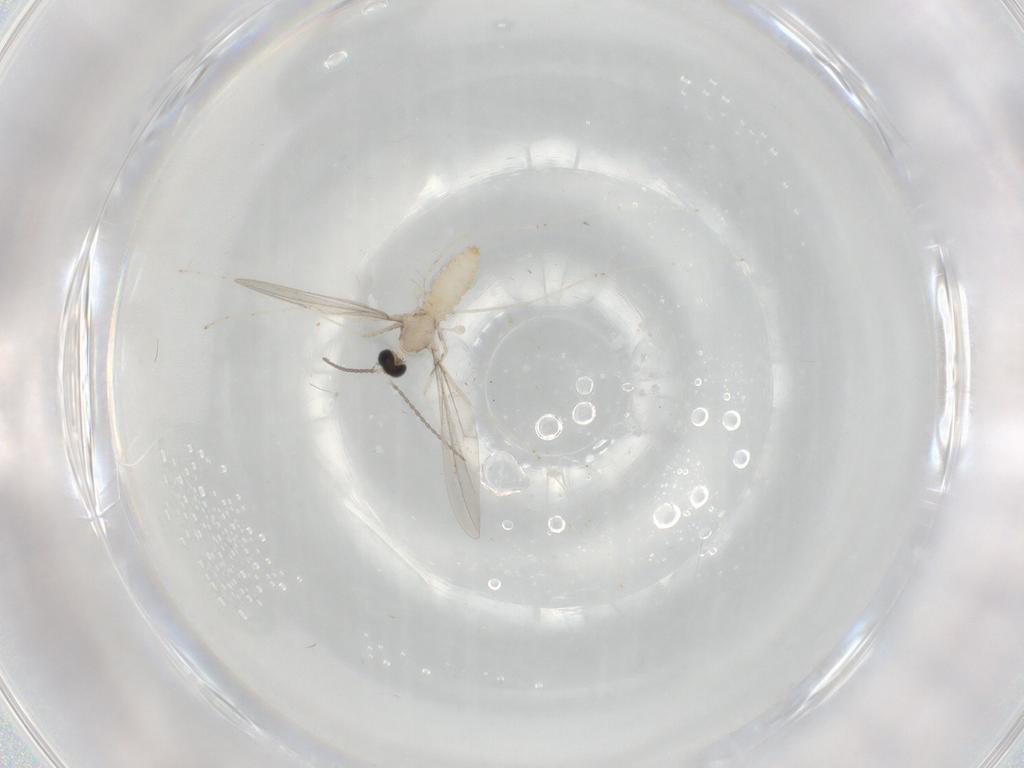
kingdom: Animalia
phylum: Arthropoda
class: Insecta
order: Diptera
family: Cecidomyiidae
